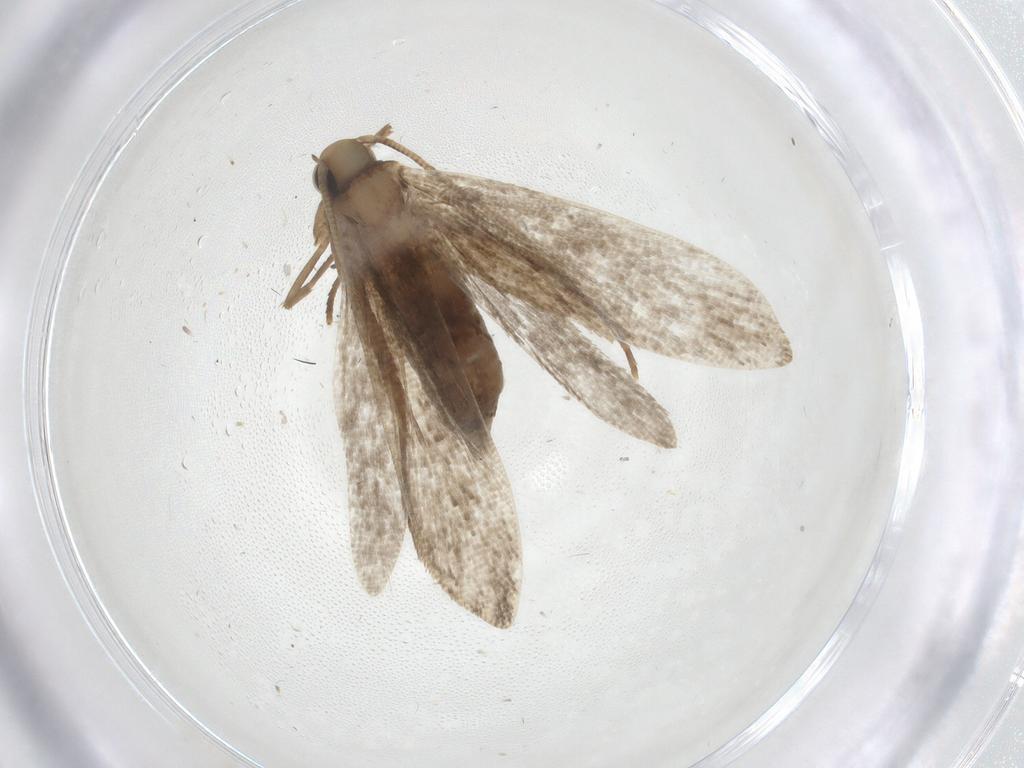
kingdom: Animalia
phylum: Arthropoda
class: Insecta
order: Lepidoptera
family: Tineidae
